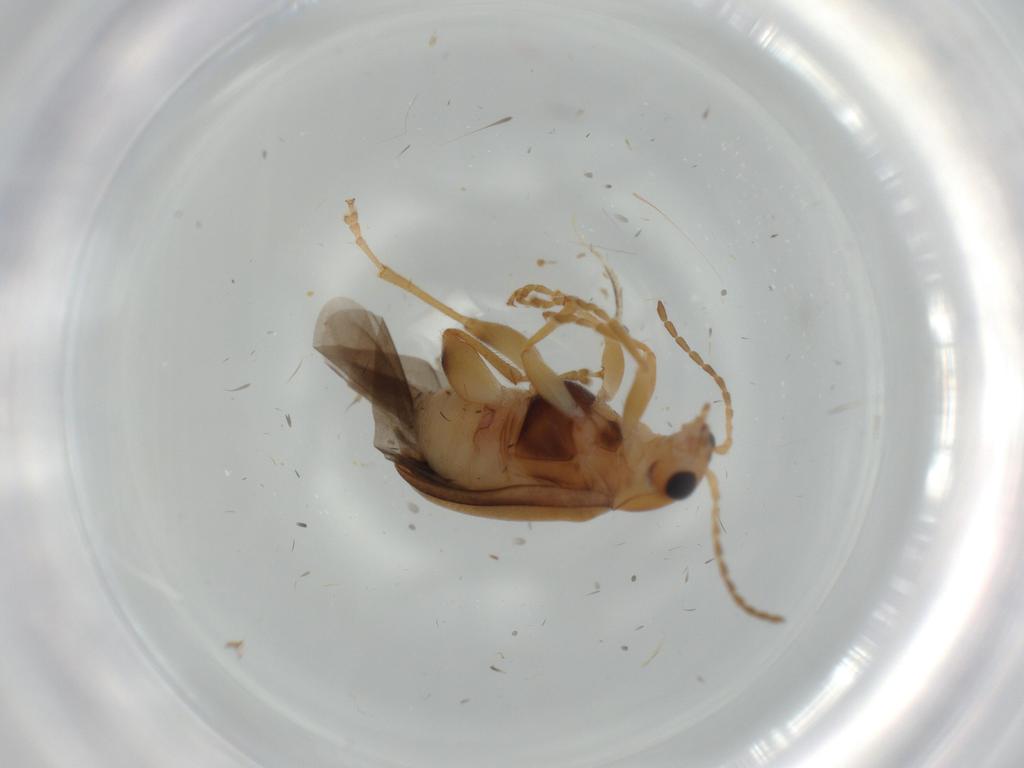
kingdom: Animalia
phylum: Arthropoda
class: Insecta
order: Coleoptera
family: Chrysomelidae
